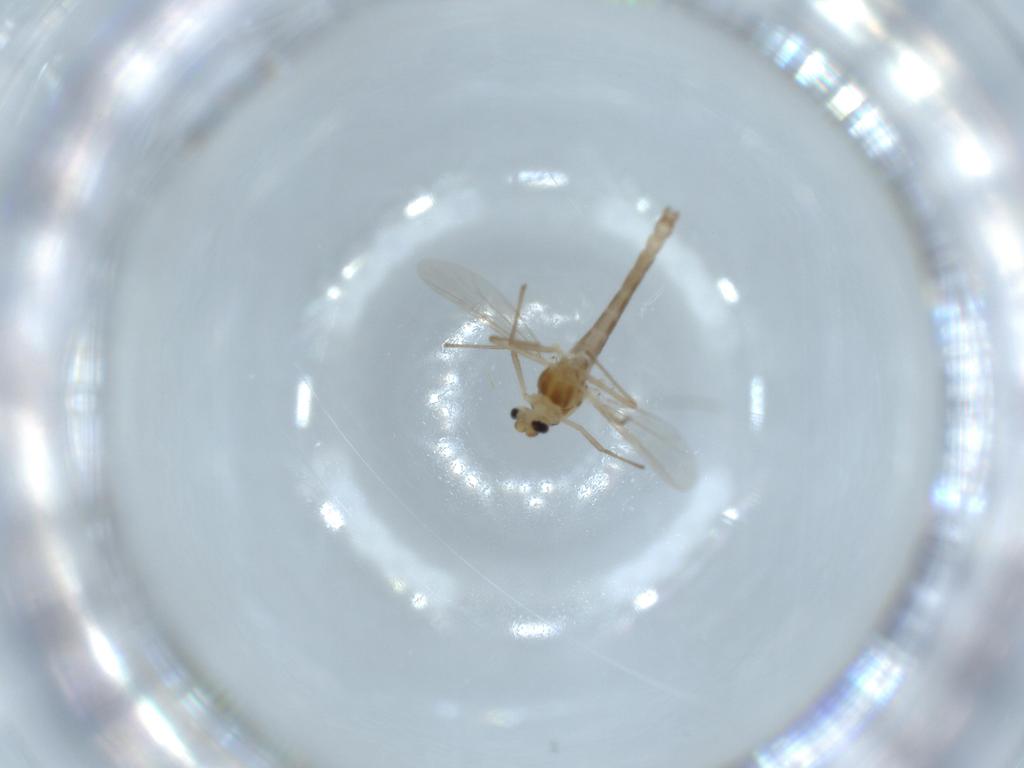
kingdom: Animalia
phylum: Arthropoda
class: Insecta
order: Diptera
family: Chironomidae
